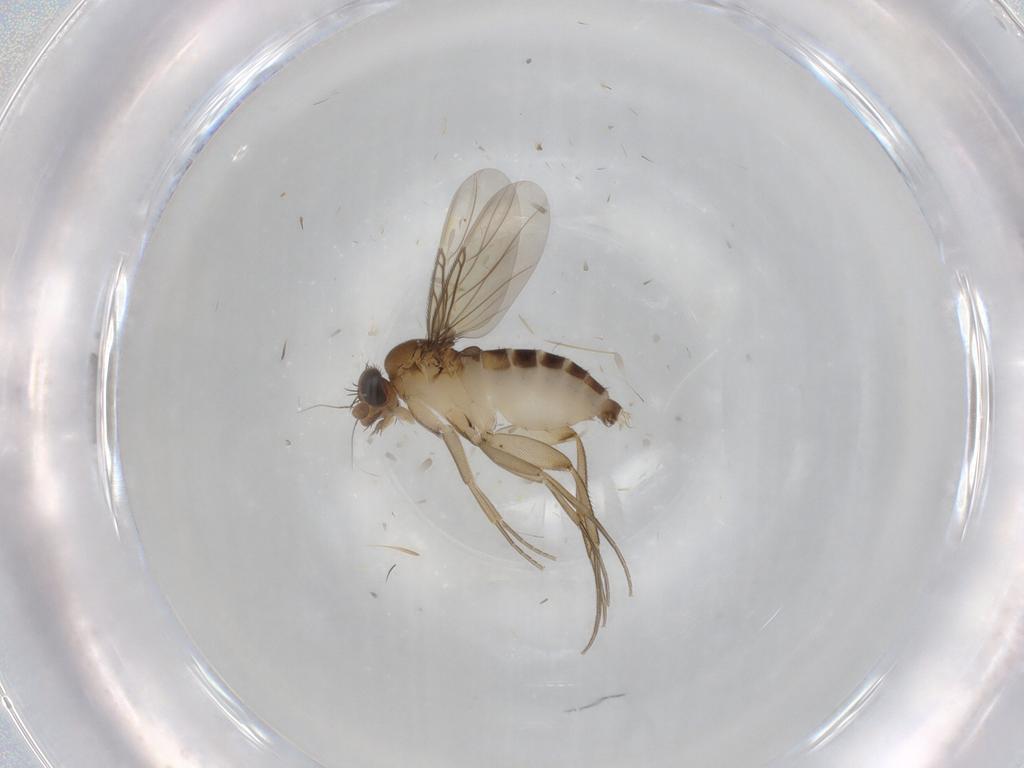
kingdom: Animalia
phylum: Arthropoda
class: Insecta
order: Diptera
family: Phoridae
